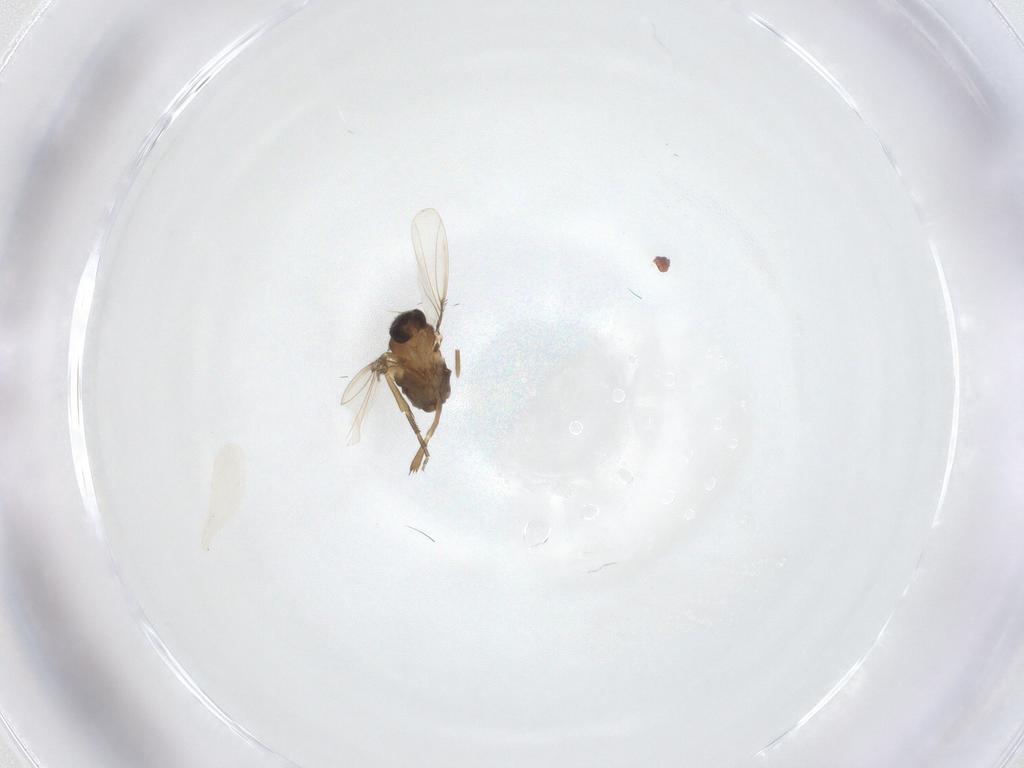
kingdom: Animalia
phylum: Arthropoda
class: Insecta
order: Diptera
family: Phoridae
